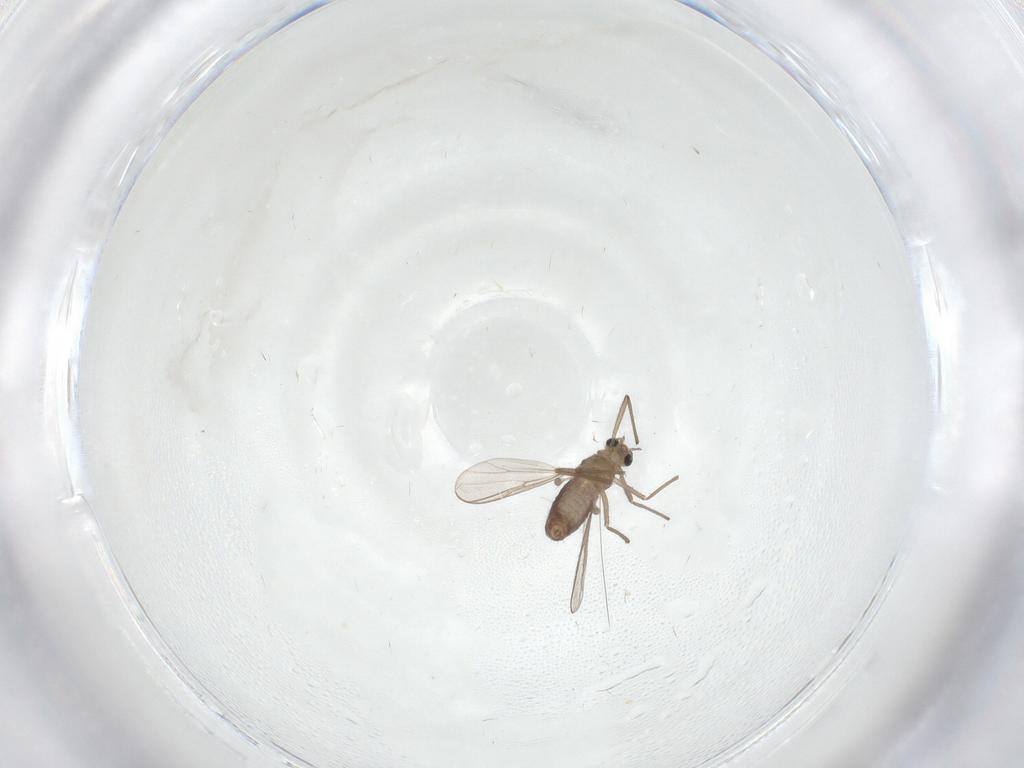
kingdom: Animalia
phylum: Arthropoda
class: Insecta
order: Diptera
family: Chironomidae
